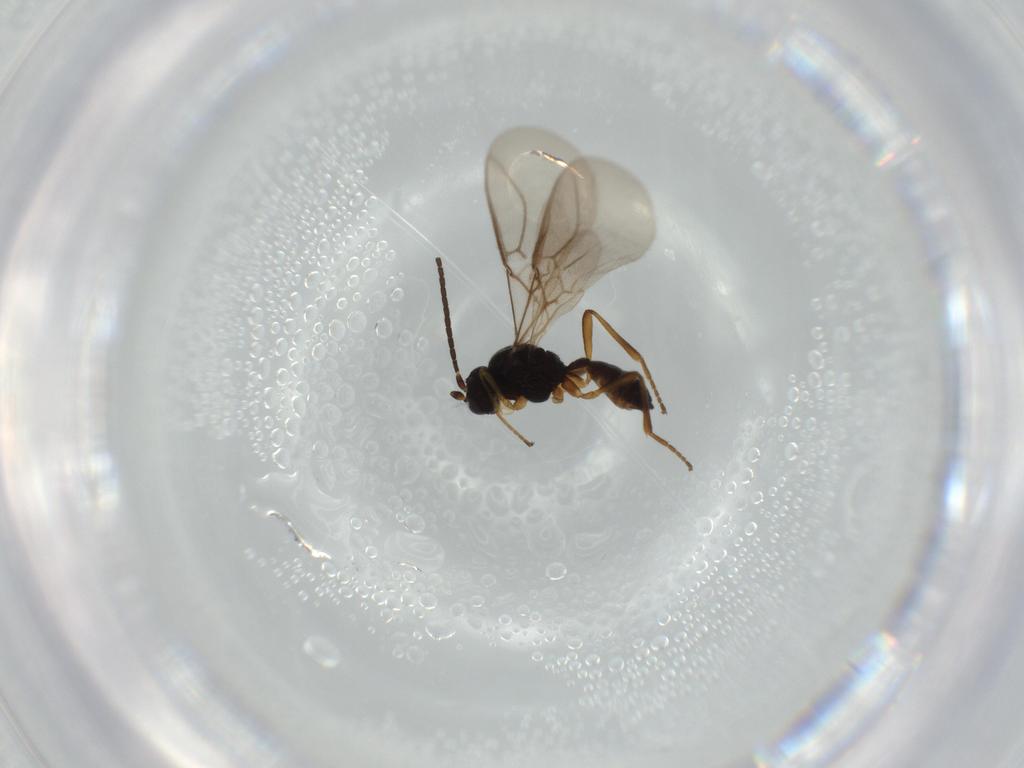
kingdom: Animalia
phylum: Arthropoda
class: Insecta
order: Hymenoptera
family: Braconidae
